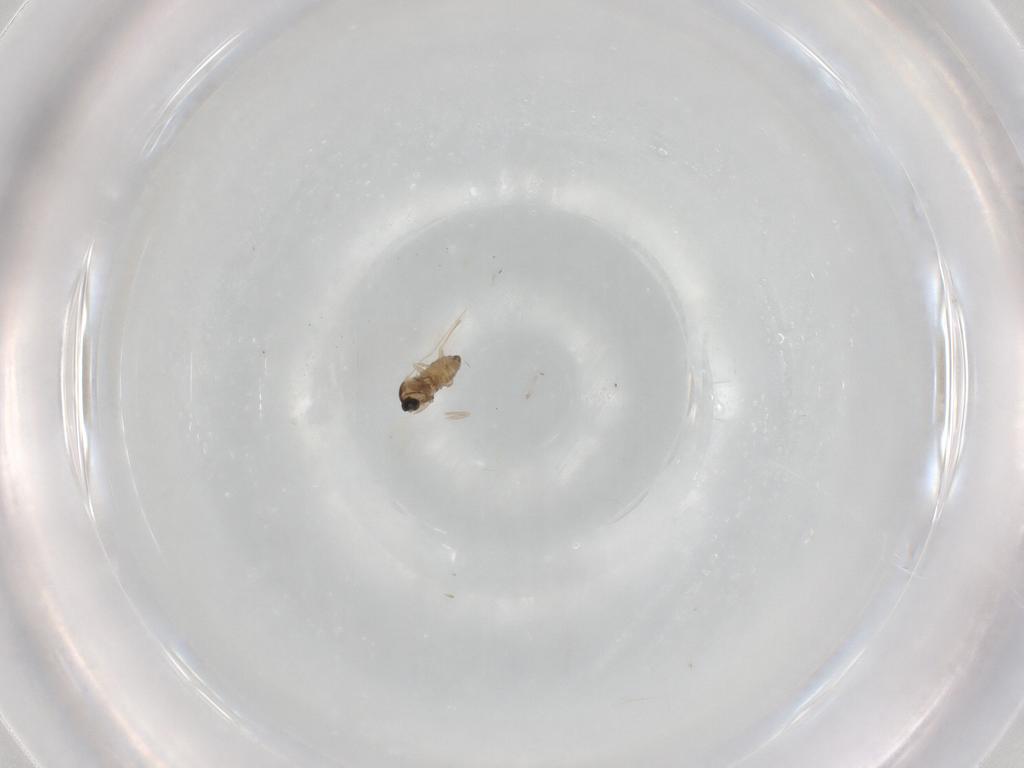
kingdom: Animalia
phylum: Arthropoda
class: Insecta
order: Diptera
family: Cecidomyiidae
